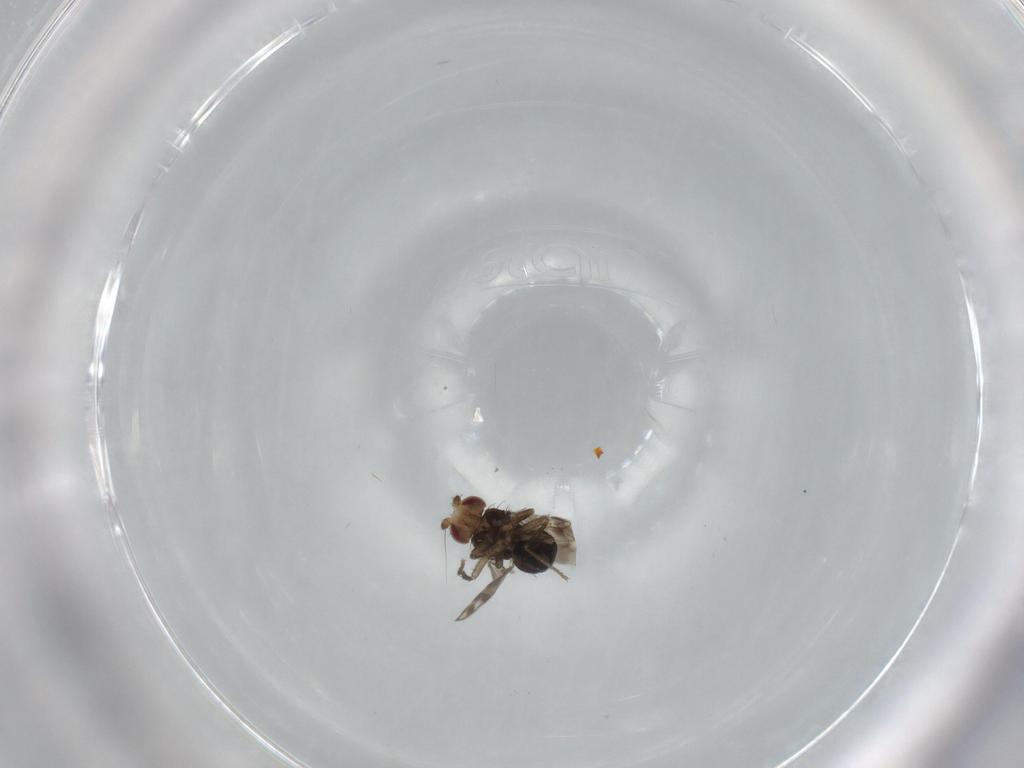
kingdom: Animalia
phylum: Arthropoda
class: Insecta
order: Diptera
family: Sphaeroceridae
